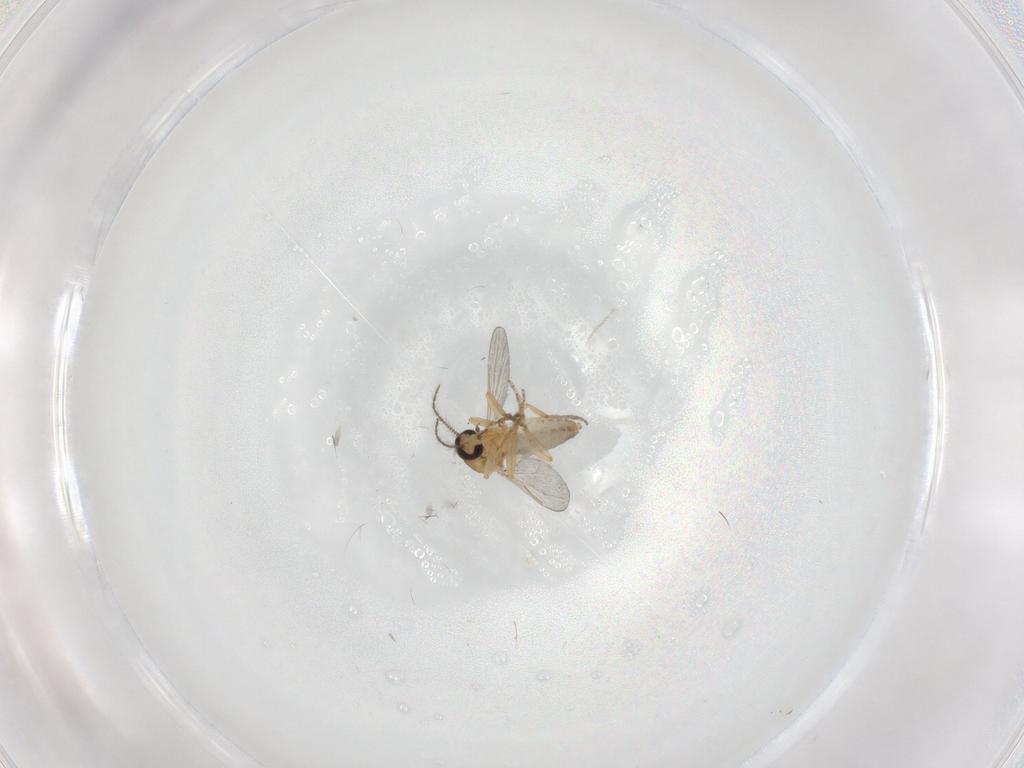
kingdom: Animalia
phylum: Arthropoda
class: Insecta
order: Diptera
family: Ceratopogonidae
